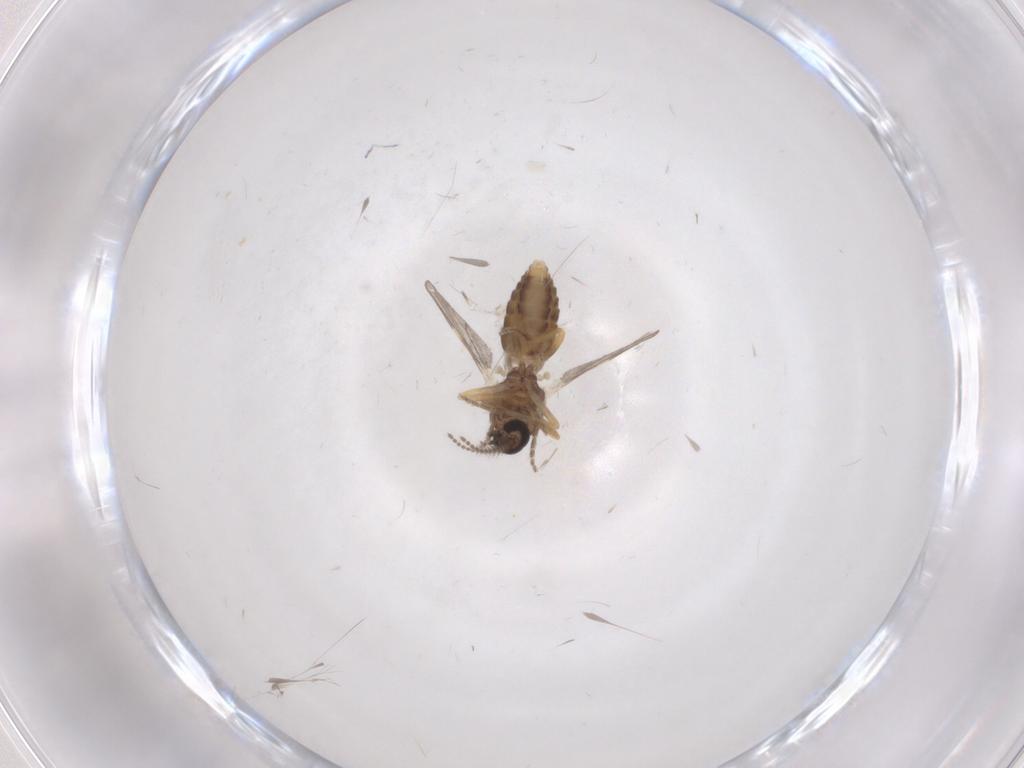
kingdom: Animalia
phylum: Arthropoda
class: Insecta
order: Diptera
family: Ceratopogonidae
